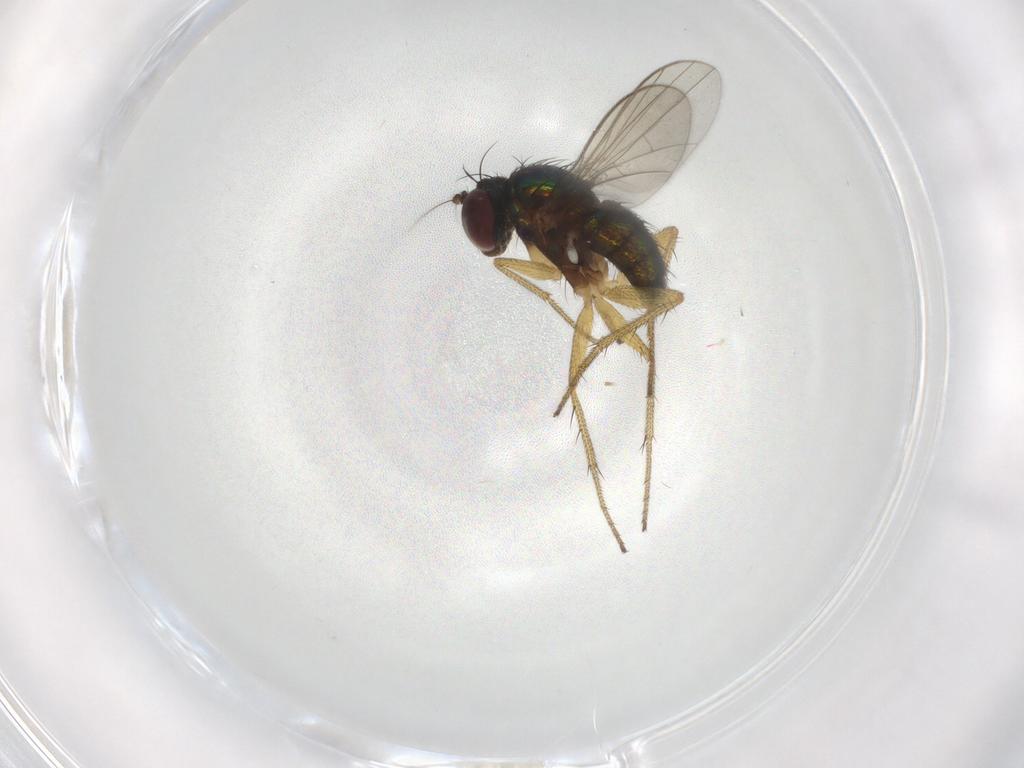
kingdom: Animalia
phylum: Arthropoda
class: Insecta
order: Diptera
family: Dolichopodidae
